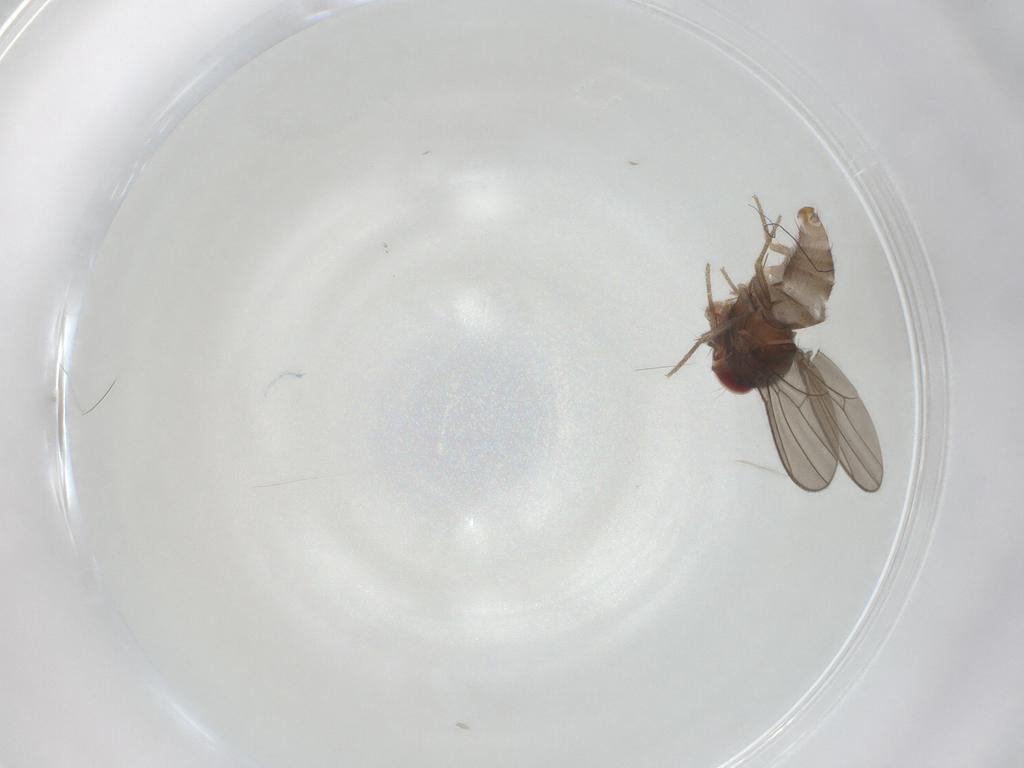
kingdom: Animalia
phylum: Arthropoda
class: Insecta
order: Diptera
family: Drosophilidae
